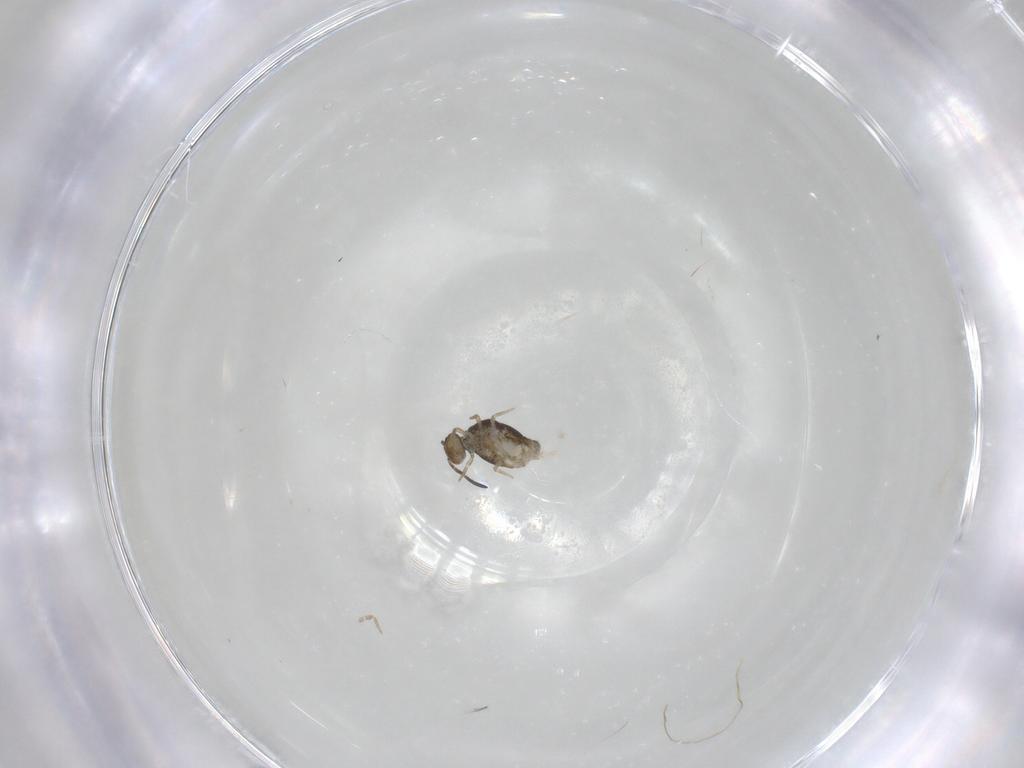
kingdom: Animalia
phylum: Arthropoda
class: Collembola
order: Symphypleona
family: Katiannidae
